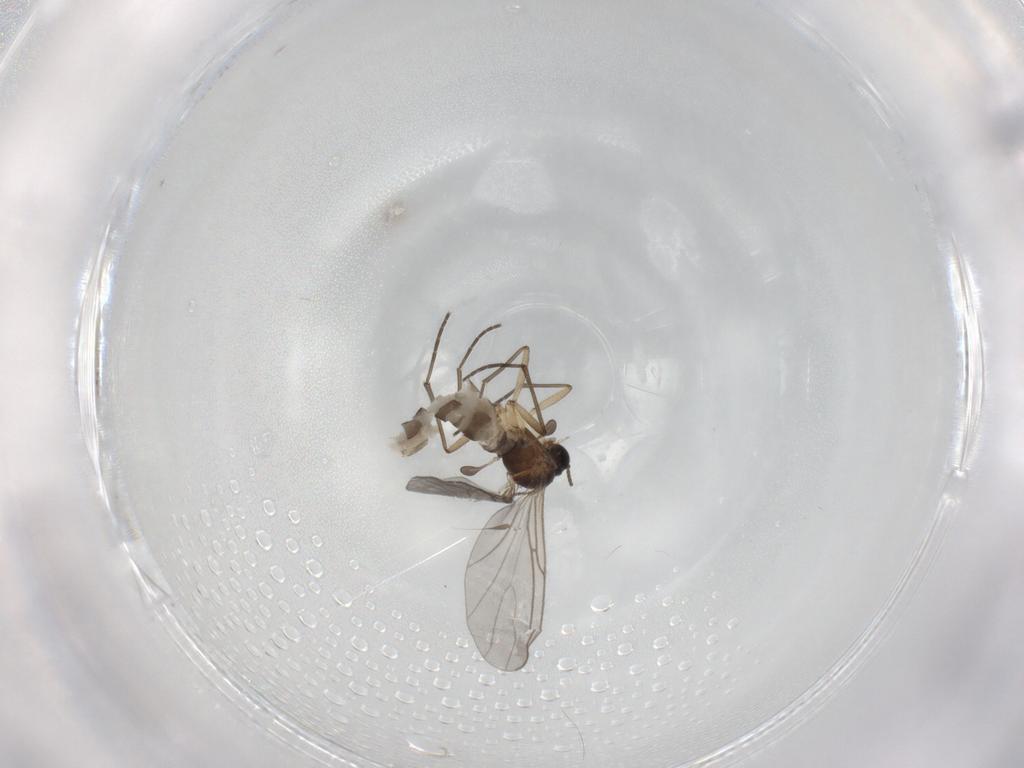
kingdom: Animalia
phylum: Arthropoda
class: Insecta
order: Diptera
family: Sciaridae
